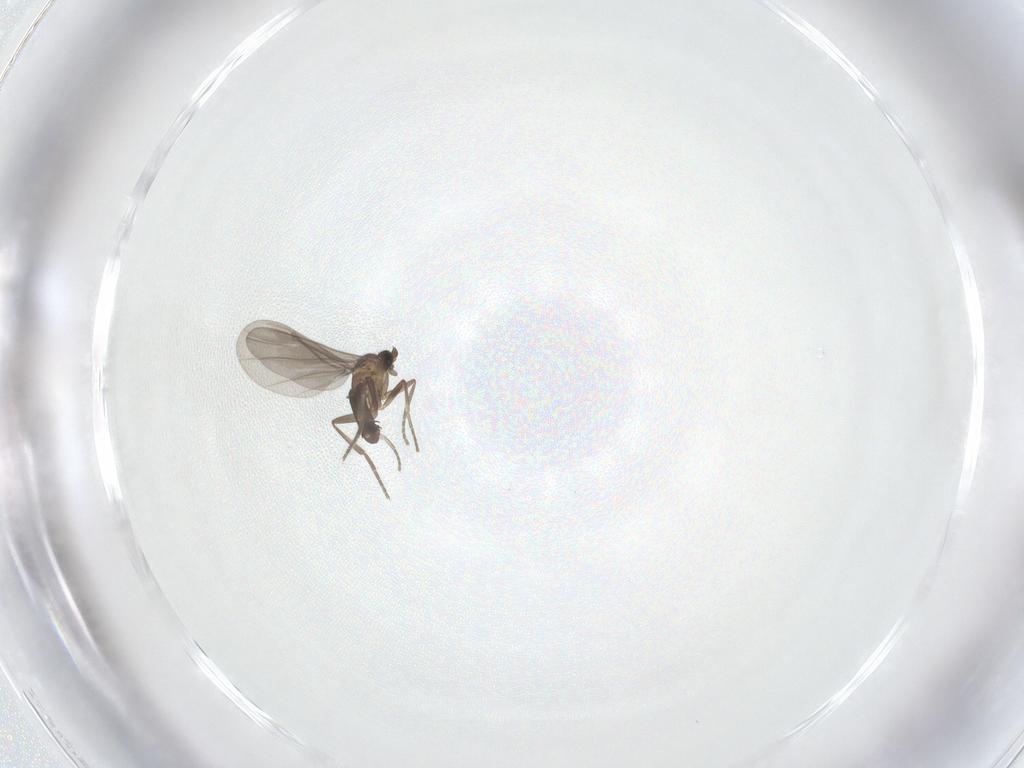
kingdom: Animalia
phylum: Arthropoda
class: Insecta
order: Diptera
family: Phoridae
